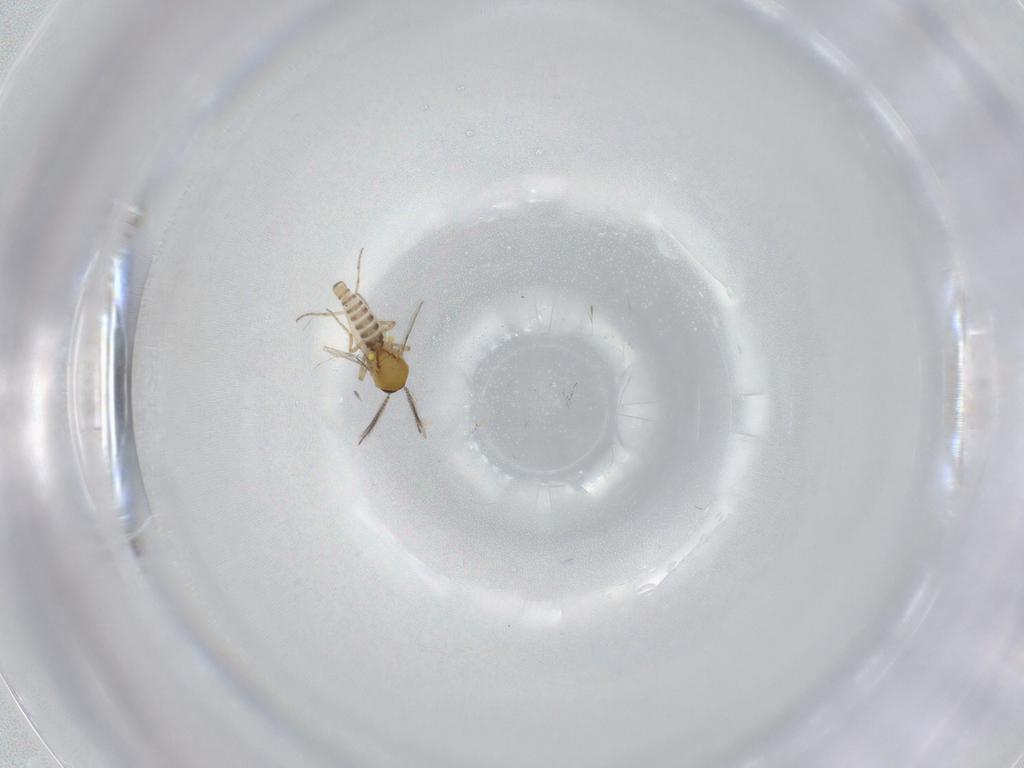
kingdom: Animalia
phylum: Arthropoda
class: Insecta
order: Diptera
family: Ceratopogonidae
